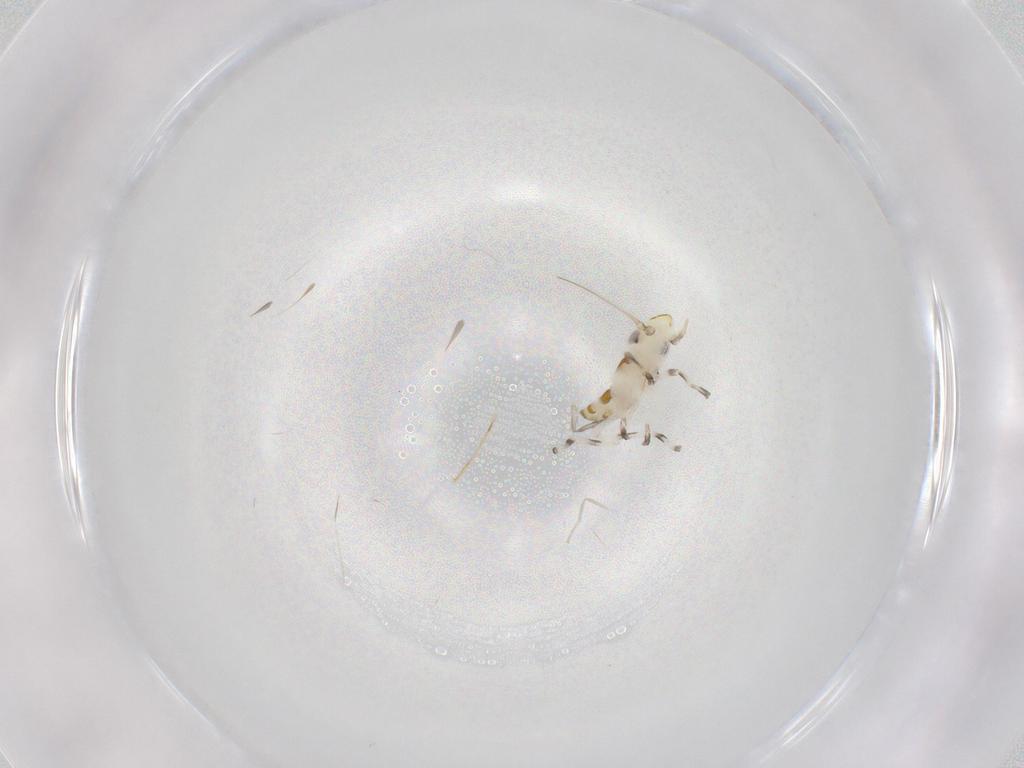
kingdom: Animalia
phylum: Arthropoda
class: Insecta
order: Hemiptera
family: Cicadellidae
